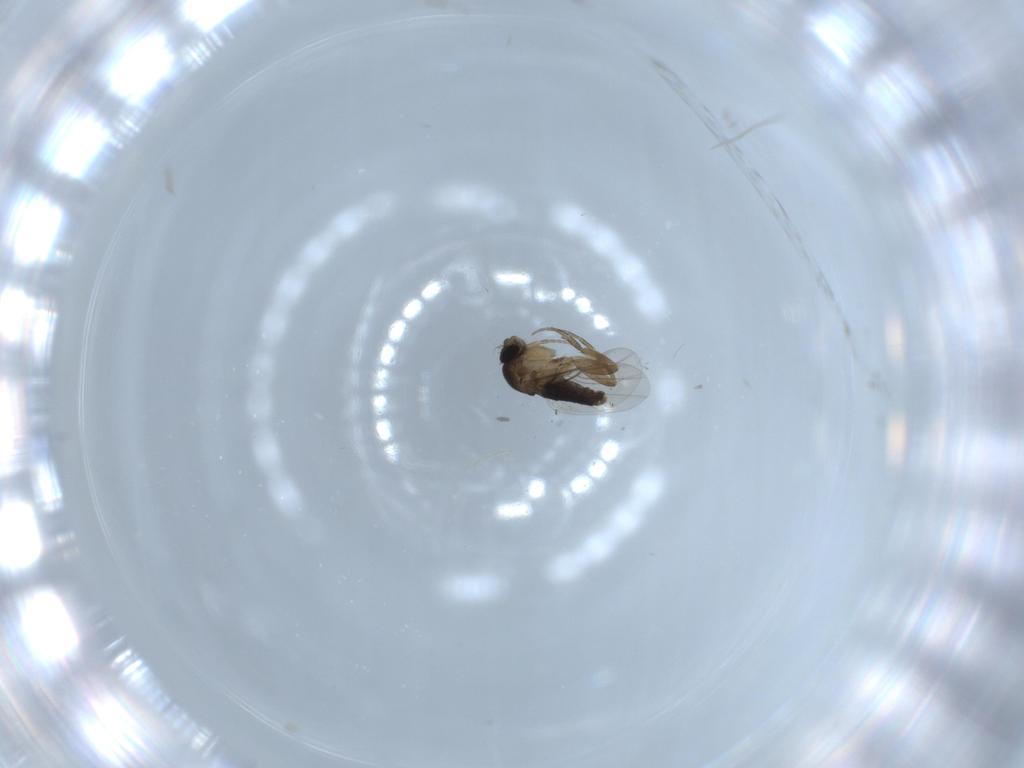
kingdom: Animalia
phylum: Arthropoda
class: Insecta
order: Diptera
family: Phoridae
